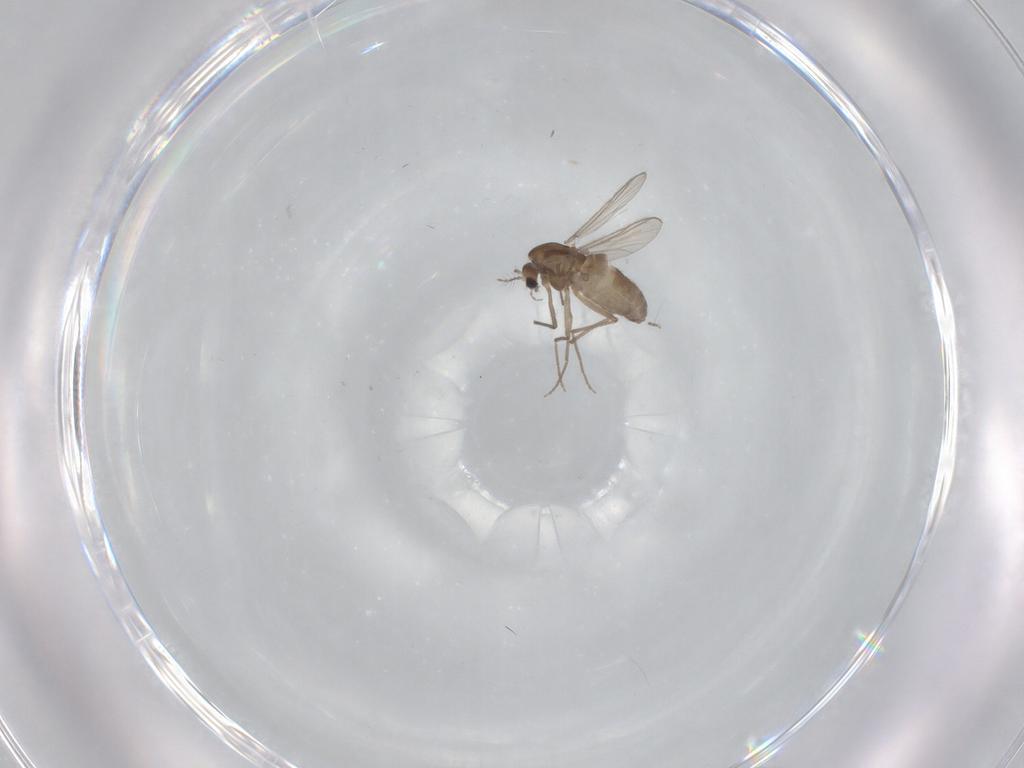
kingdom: Animalia
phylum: Arthropoda
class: Insecta
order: Diptera
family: Chironomidae
